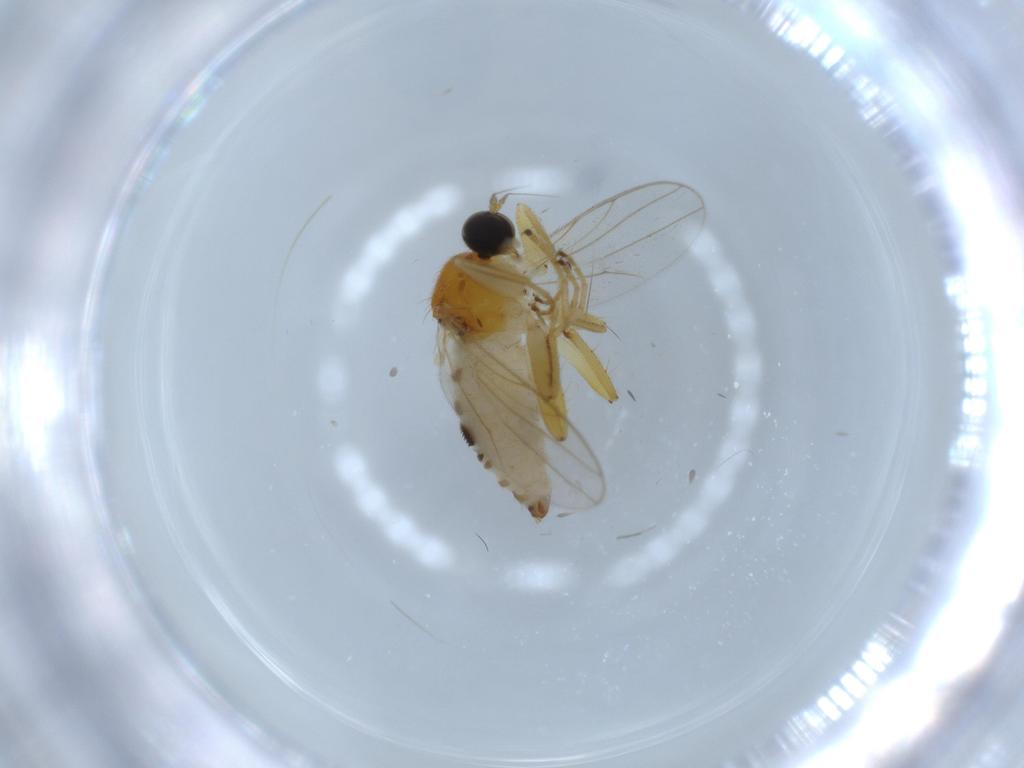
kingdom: Animalia
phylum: Arthropoda
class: Insecta
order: Diptera
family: Hybotidae
